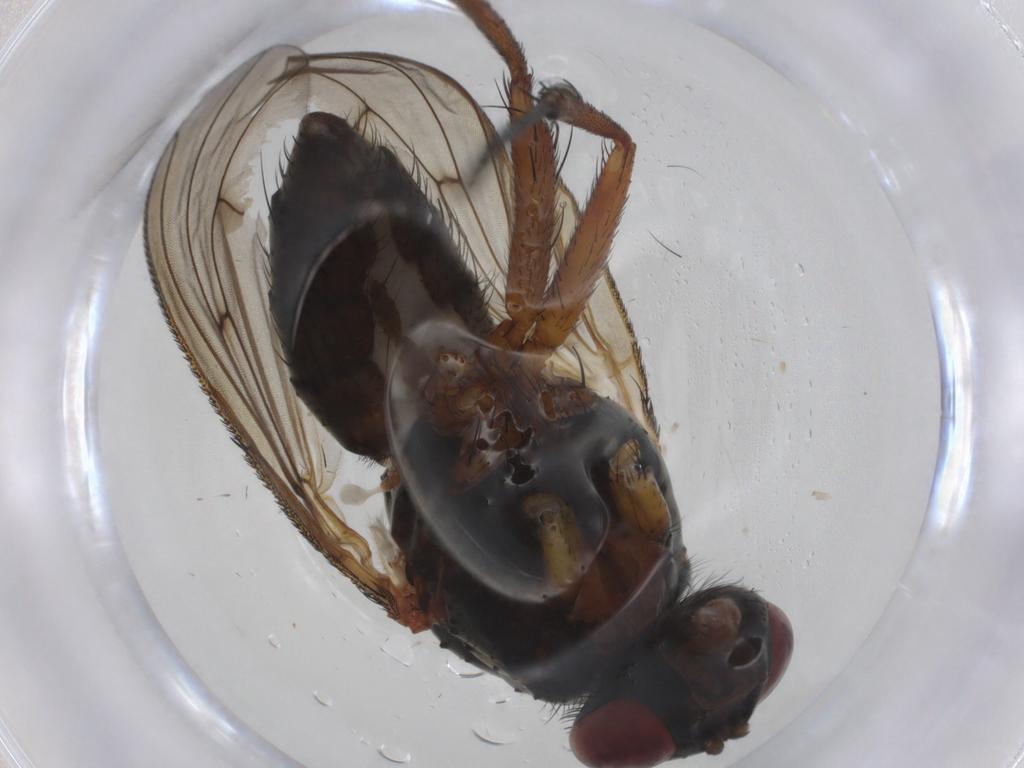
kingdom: Animalia
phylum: Arthropoda
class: Insecta
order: Diptera
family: Anthomyiidae
